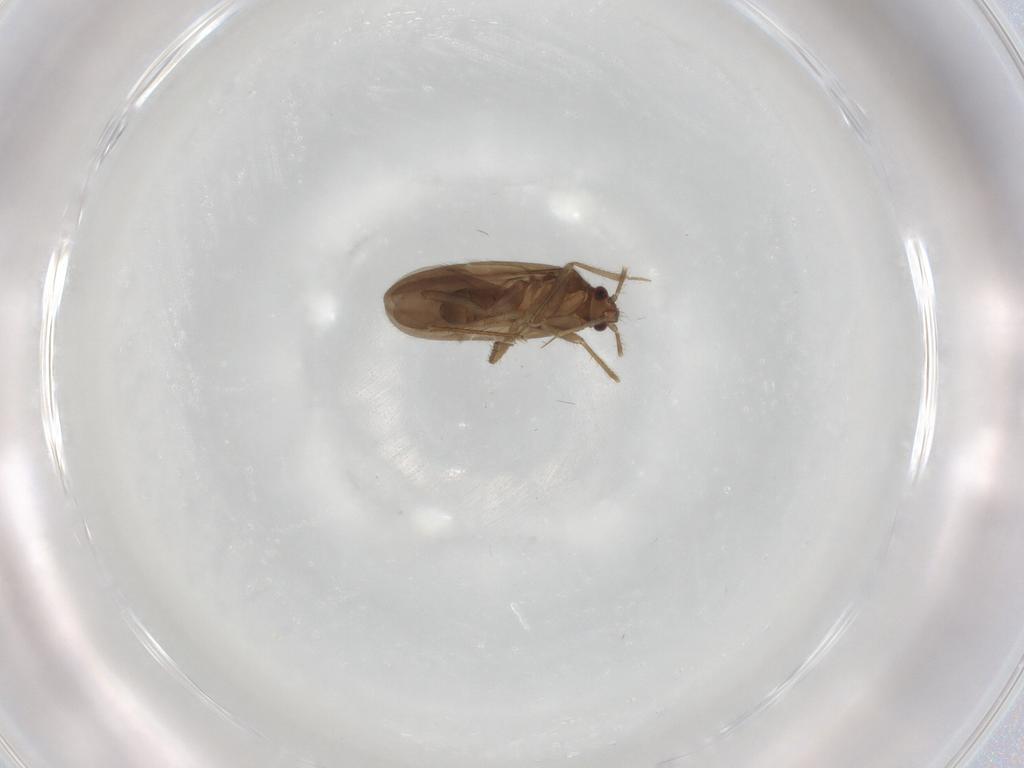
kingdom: Animalia
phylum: Arthropoda
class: Insecta
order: Hemiptera
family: Ceratocombidae
